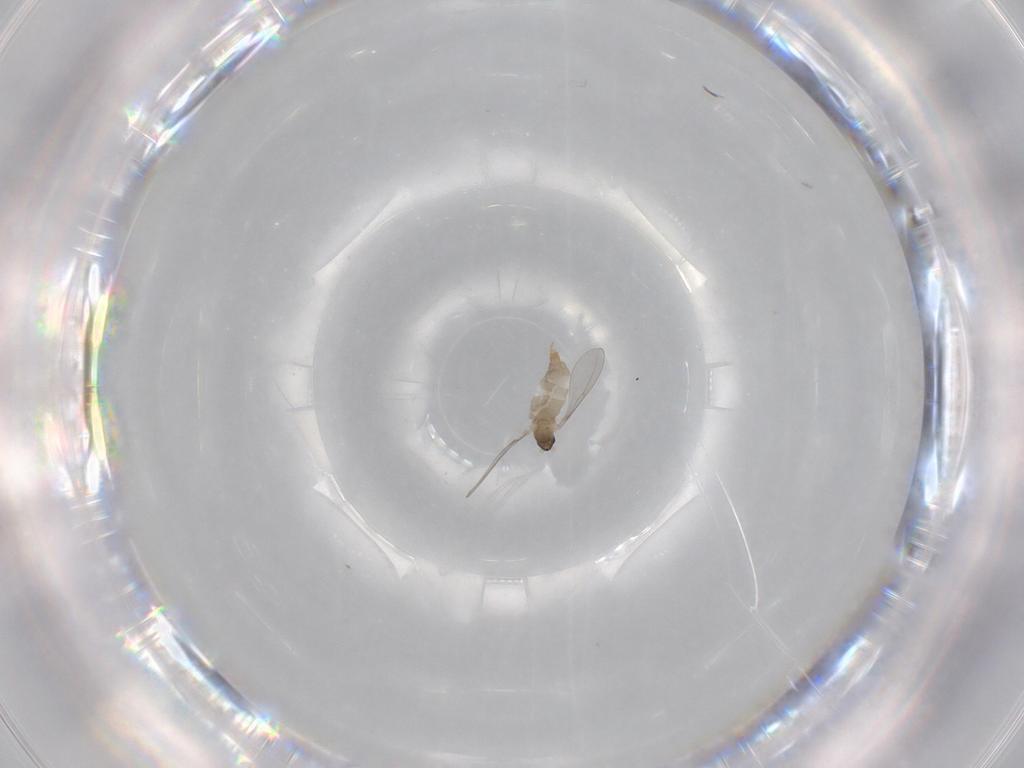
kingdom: Animalia
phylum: Arthropoda
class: Insecta
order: Diptera
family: Cecidomyiidae
